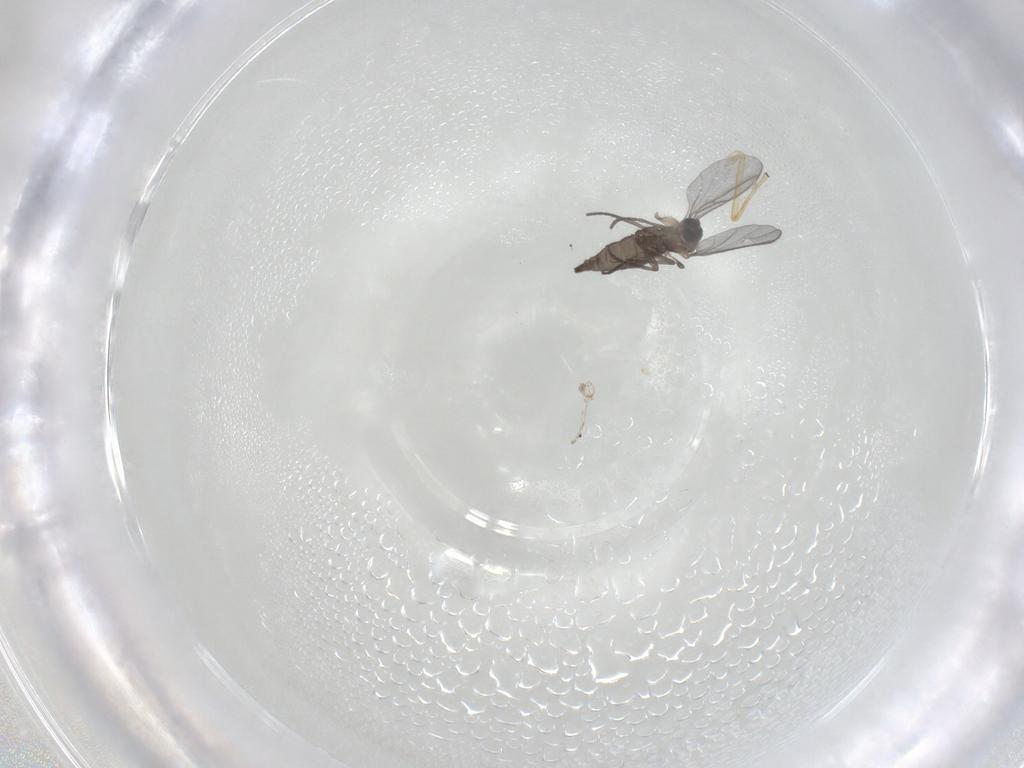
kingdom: Animalia
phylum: Arthropoda
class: Insecta
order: Diptera
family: Chironomidae
